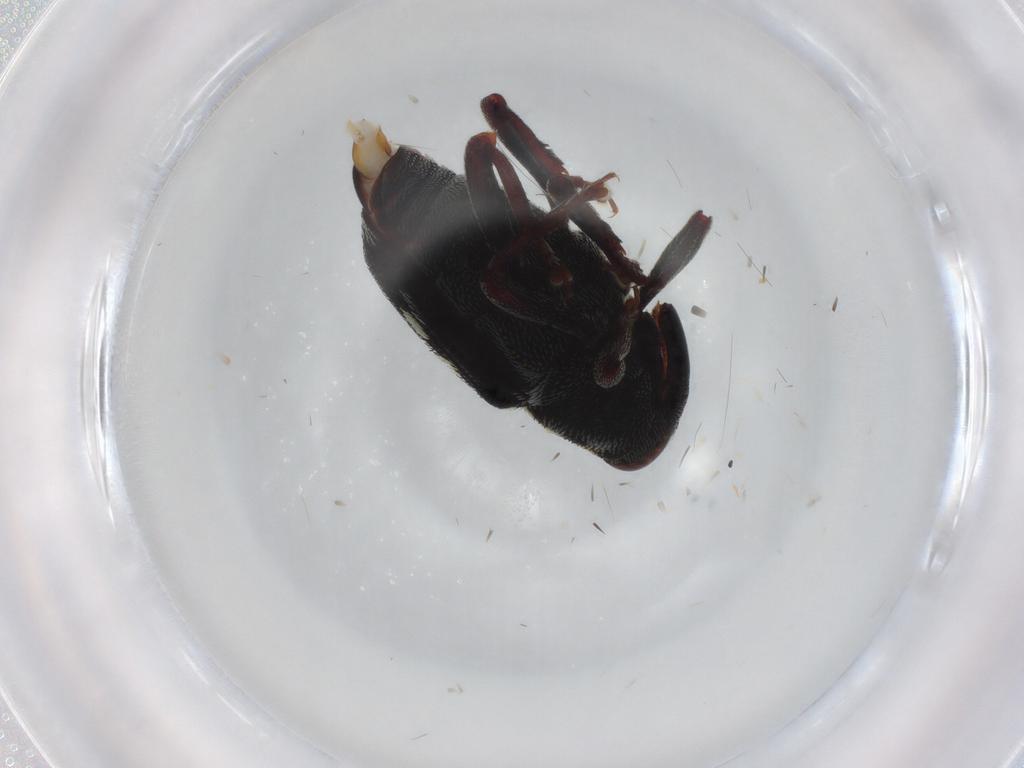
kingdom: Animalia
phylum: Arthropoda
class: Insecta
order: Coleoptera
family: Curculionidae
